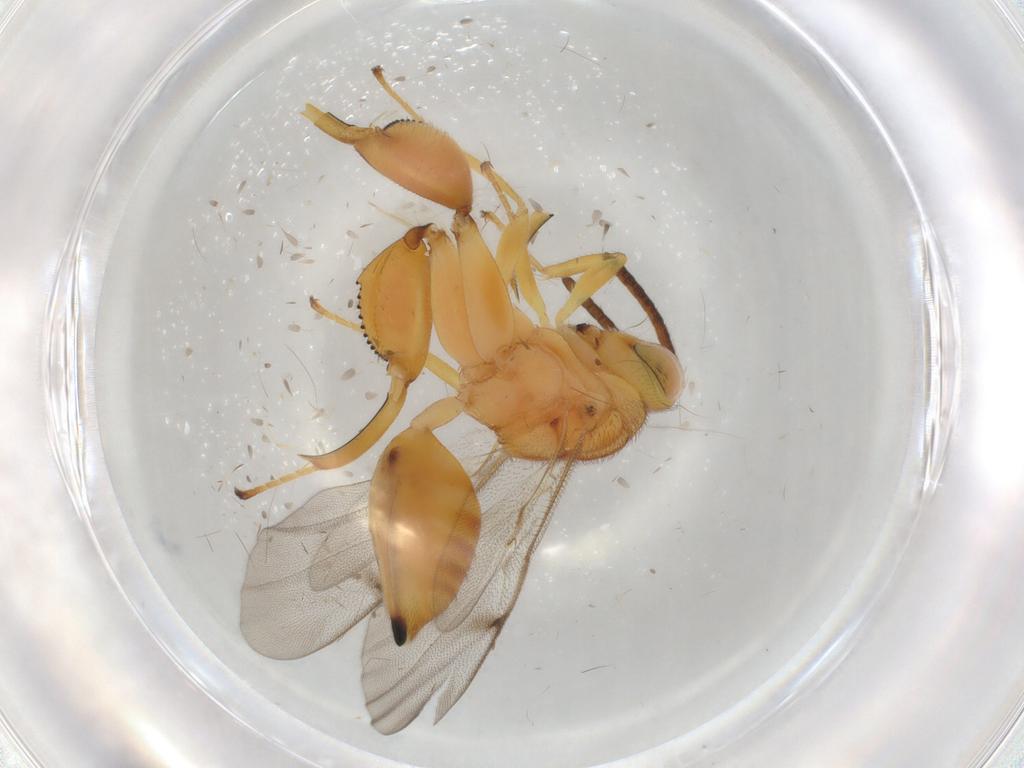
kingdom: Animalia
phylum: Arthropoda
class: Insecta
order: Hymenoptera
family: Chalcididae
